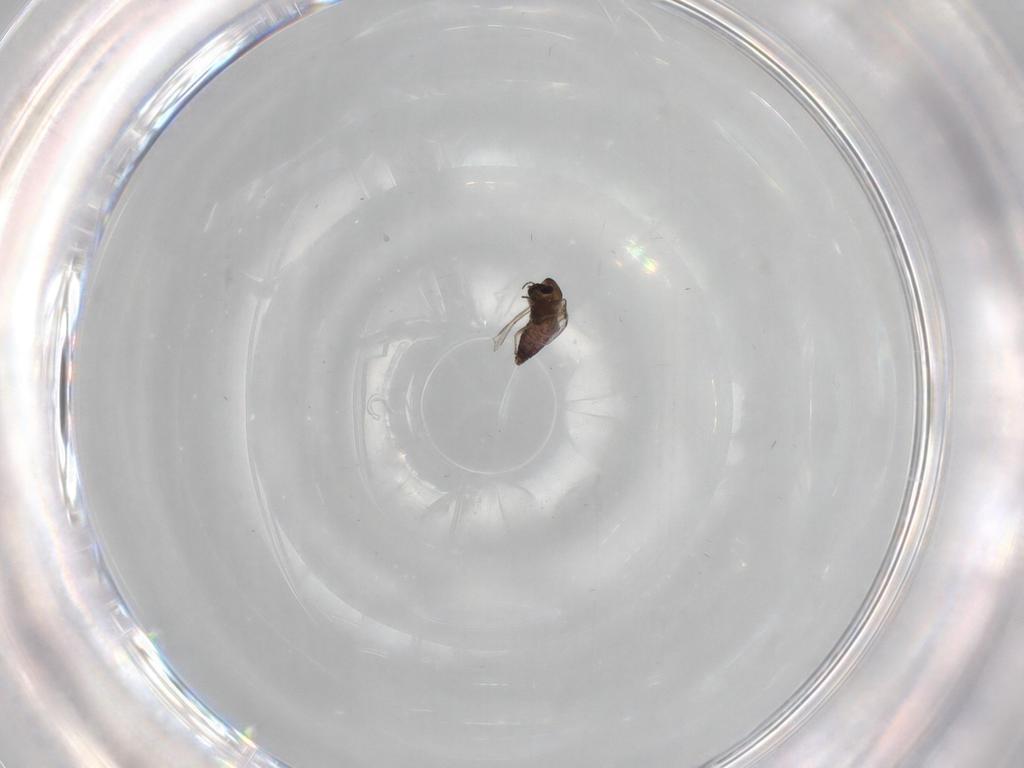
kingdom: Animalia
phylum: Arthropoda
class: Insecta
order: Diptera
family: Chironomidae
